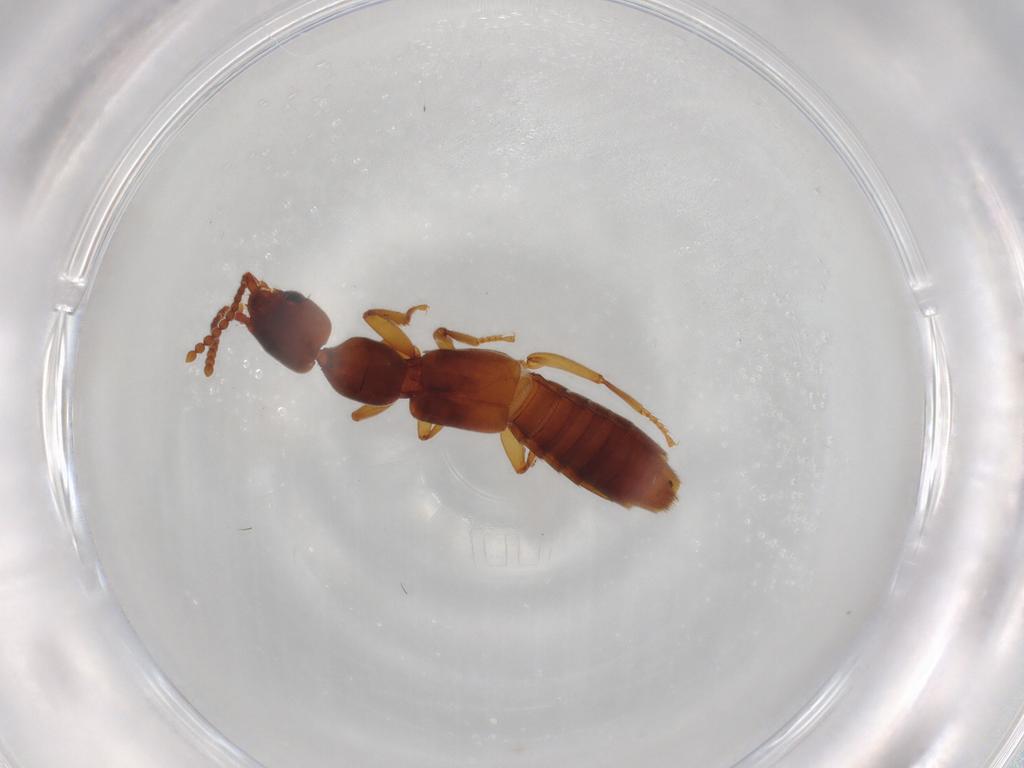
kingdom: Animalia
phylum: Arthropoda
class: Insecta
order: Coleoptera
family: Staphylinidae
